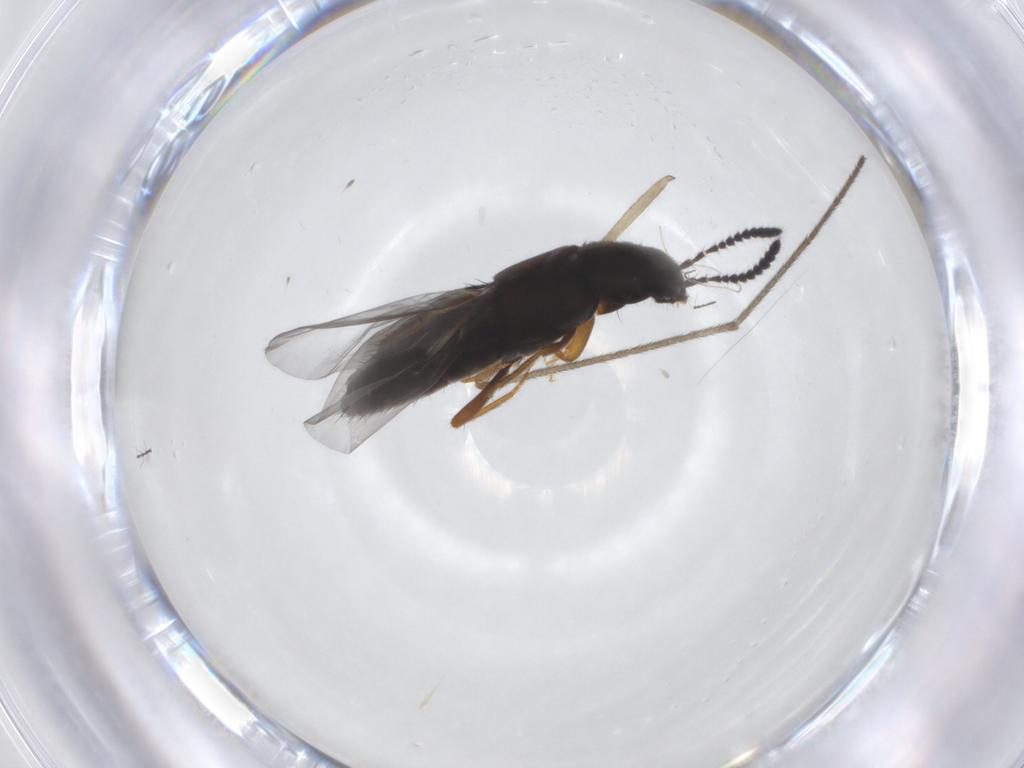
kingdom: Animalia
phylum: Arthropoda
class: Insecta
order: Coleoptera
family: Staphylinidae
